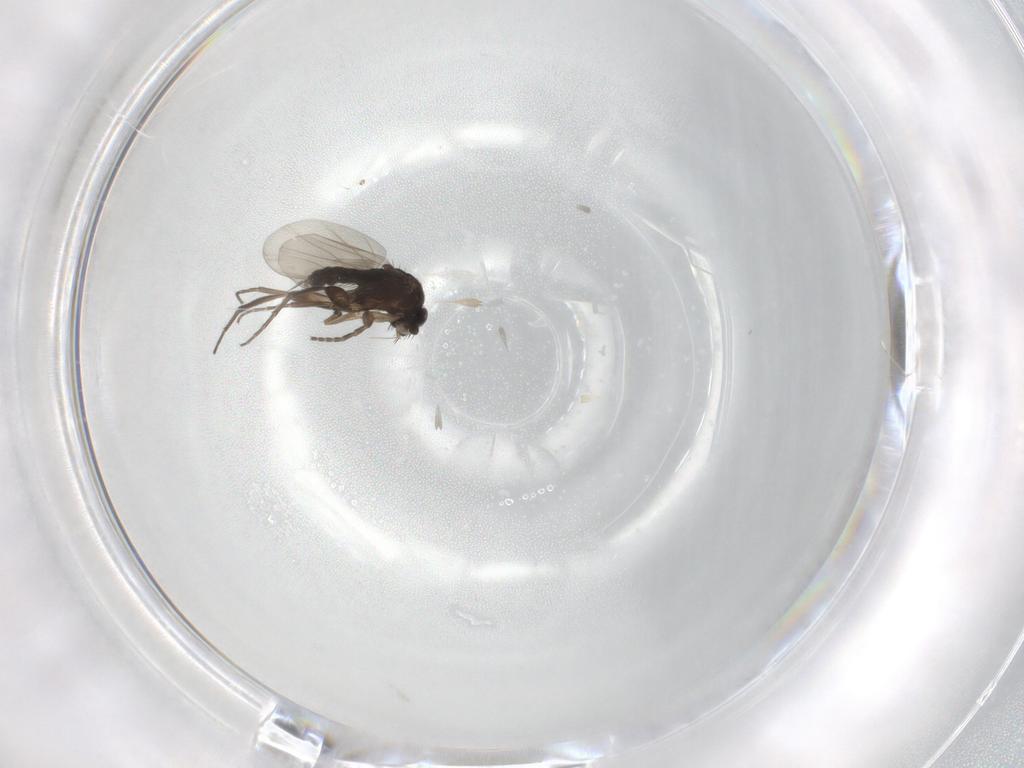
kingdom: Animalia
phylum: Arthropoda
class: Insecta
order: Diptera
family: Phoridae
